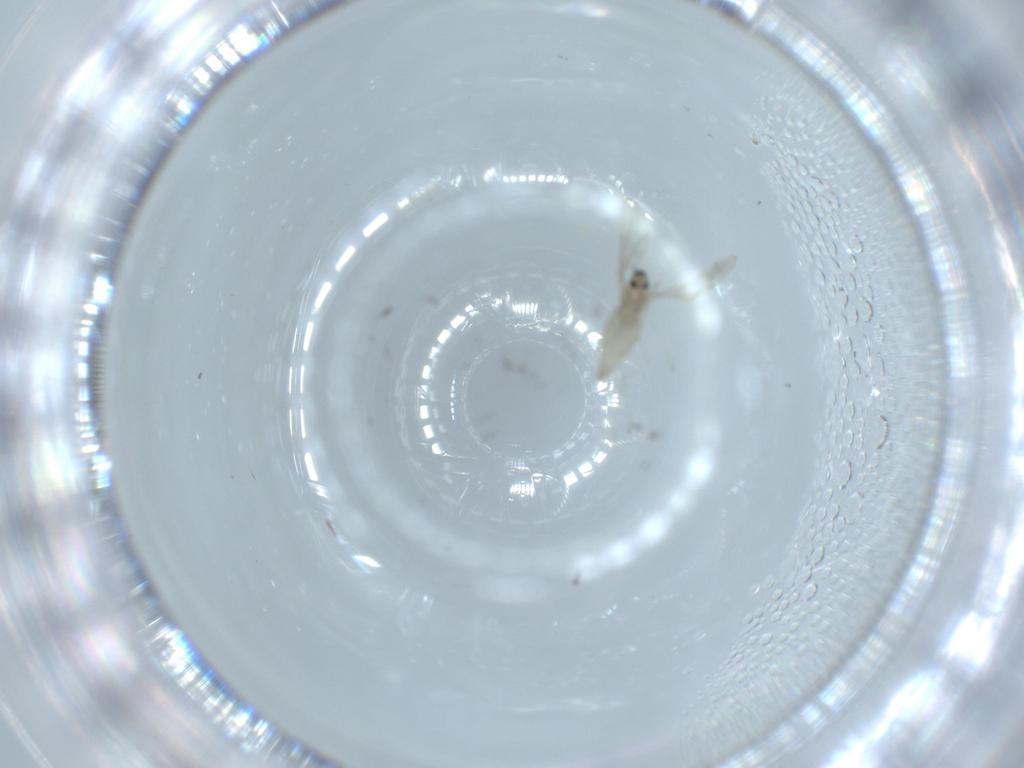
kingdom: Animalia
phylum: Arthropoda
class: Insecta
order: Diptera
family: Cecidomyiidae
